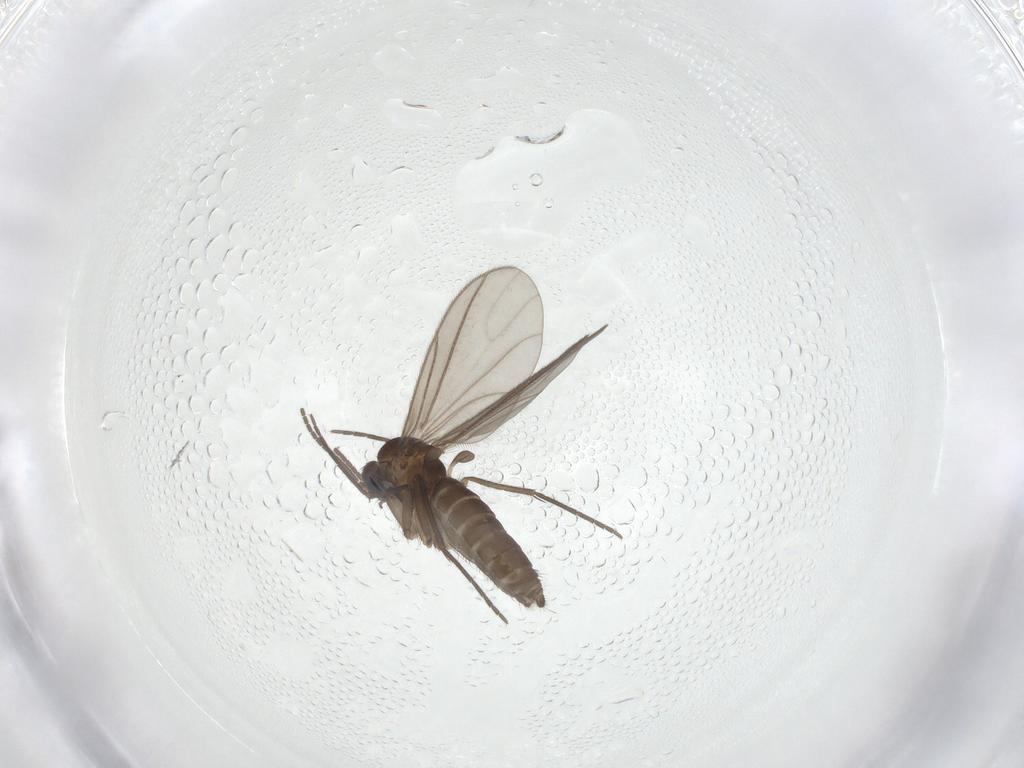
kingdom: Animalia
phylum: Arthropoda
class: Insecta
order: Diptera
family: Sciaridae
